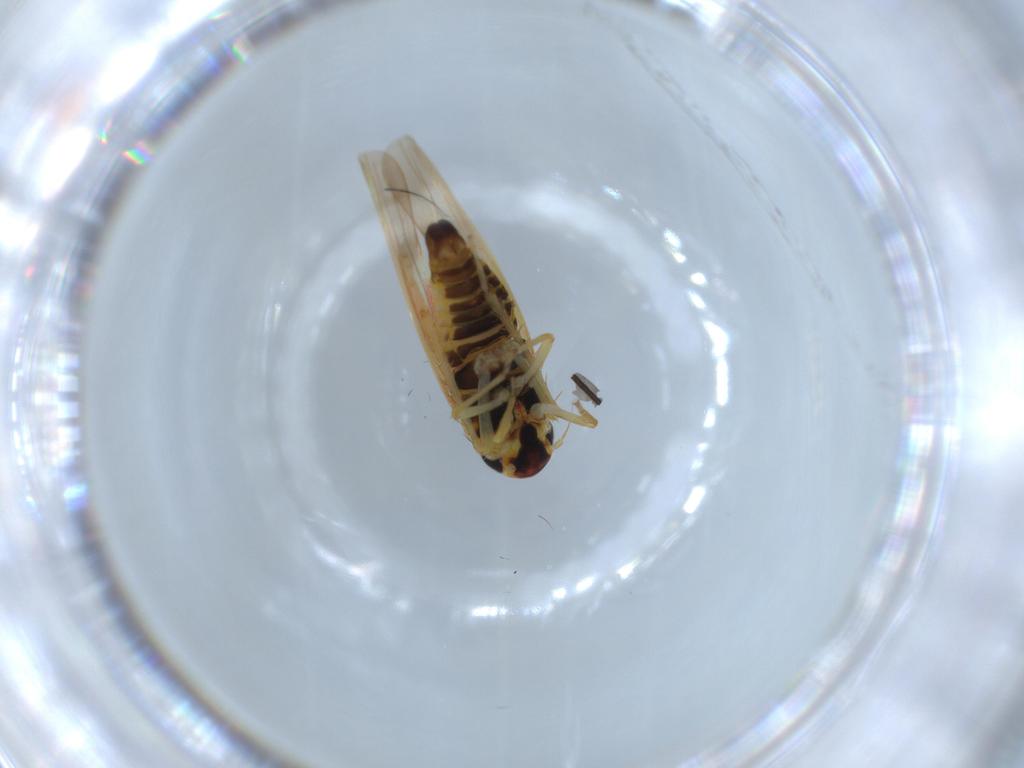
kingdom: Animalia
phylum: Arthropoda
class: Insecta
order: Hemiptera
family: Cicadellidae
